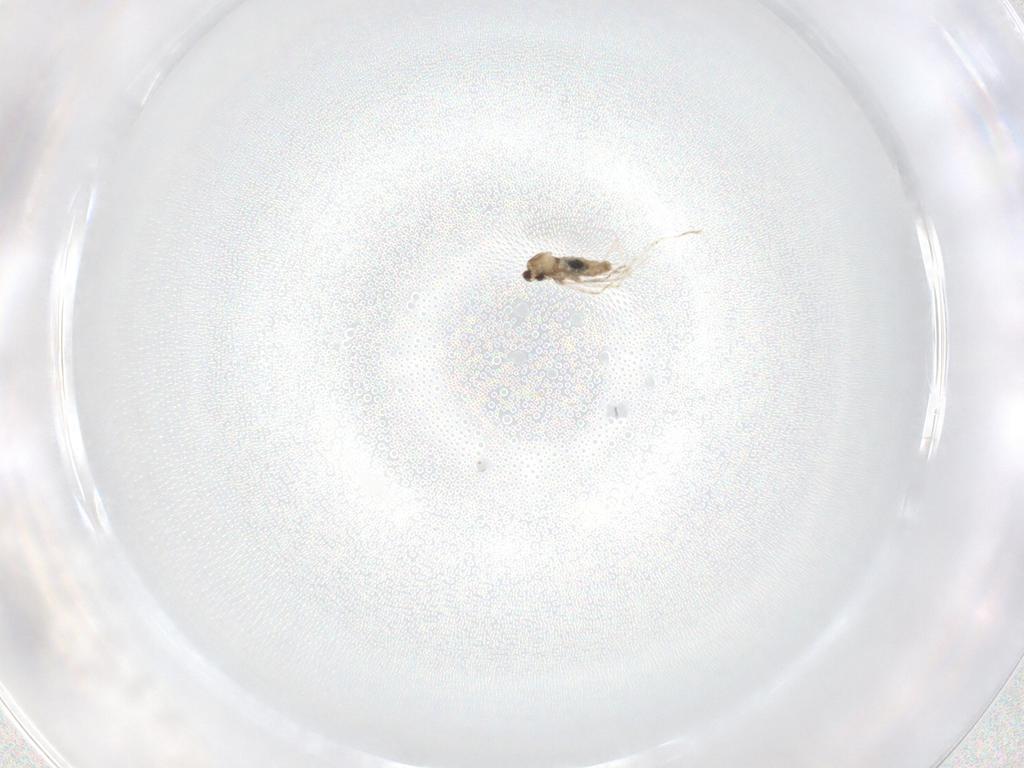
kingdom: Animalia
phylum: Arthropoda
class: Insecta
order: Diptera
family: Cecidomyiidae
